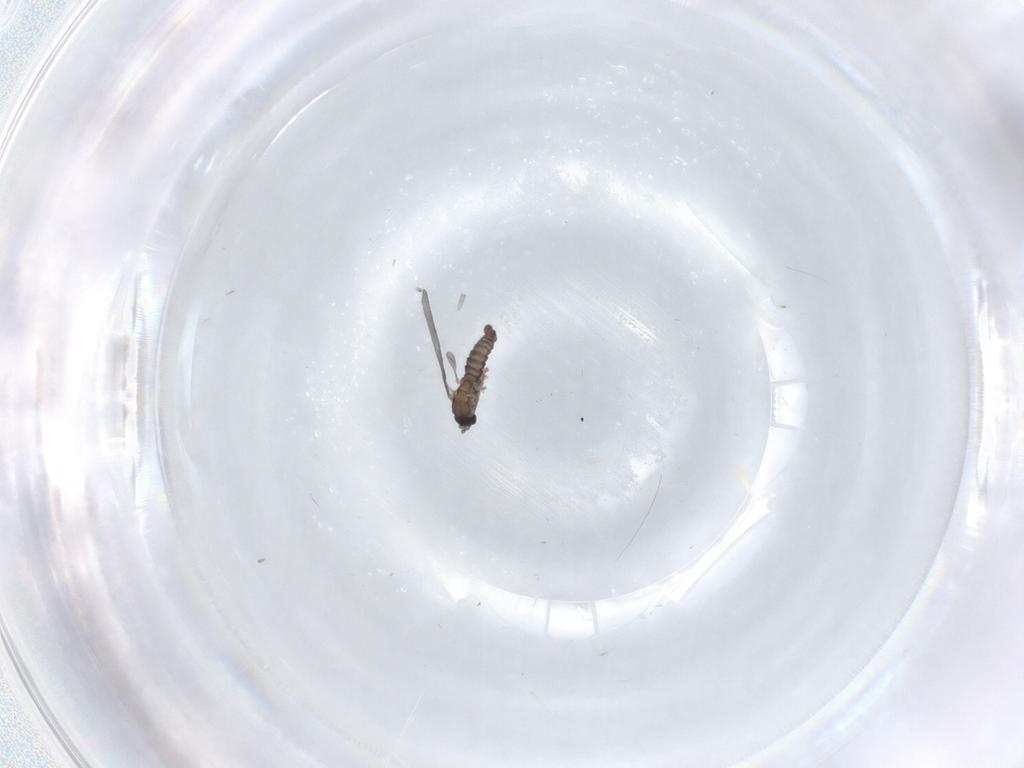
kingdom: Animalia
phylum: Arthropoda
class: Insecta
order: Diptera
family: Sciaridae
